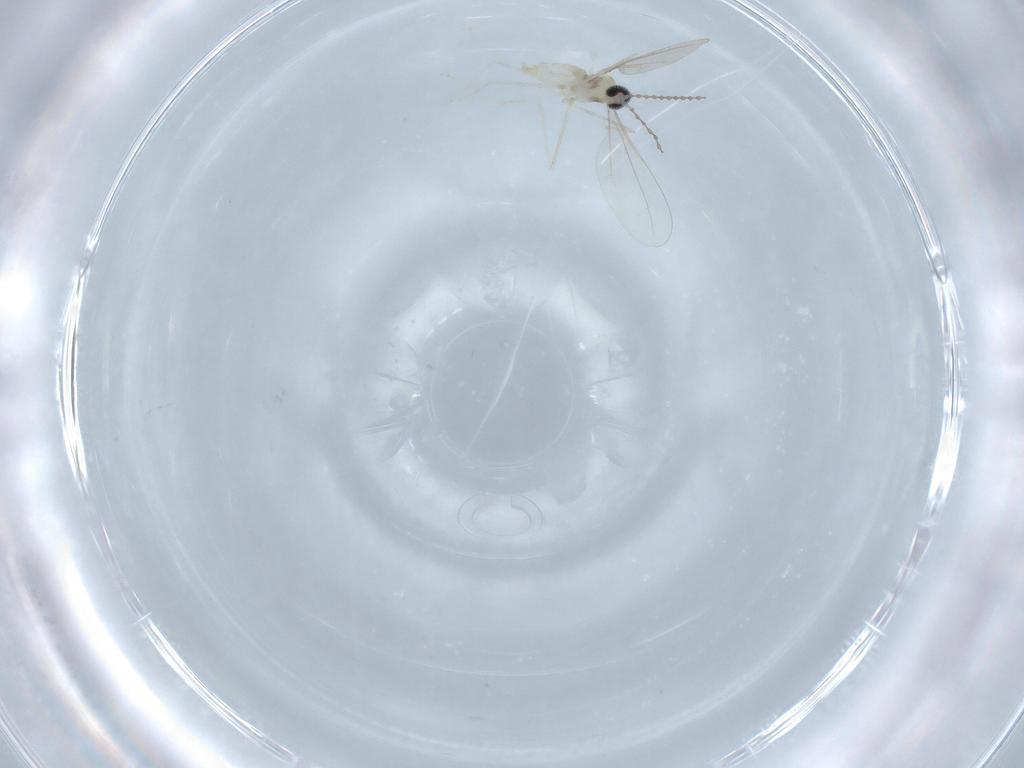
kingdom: Animalia
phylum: Arthropoda
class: Insecta
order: Diptera
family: Cecidomyiidae
